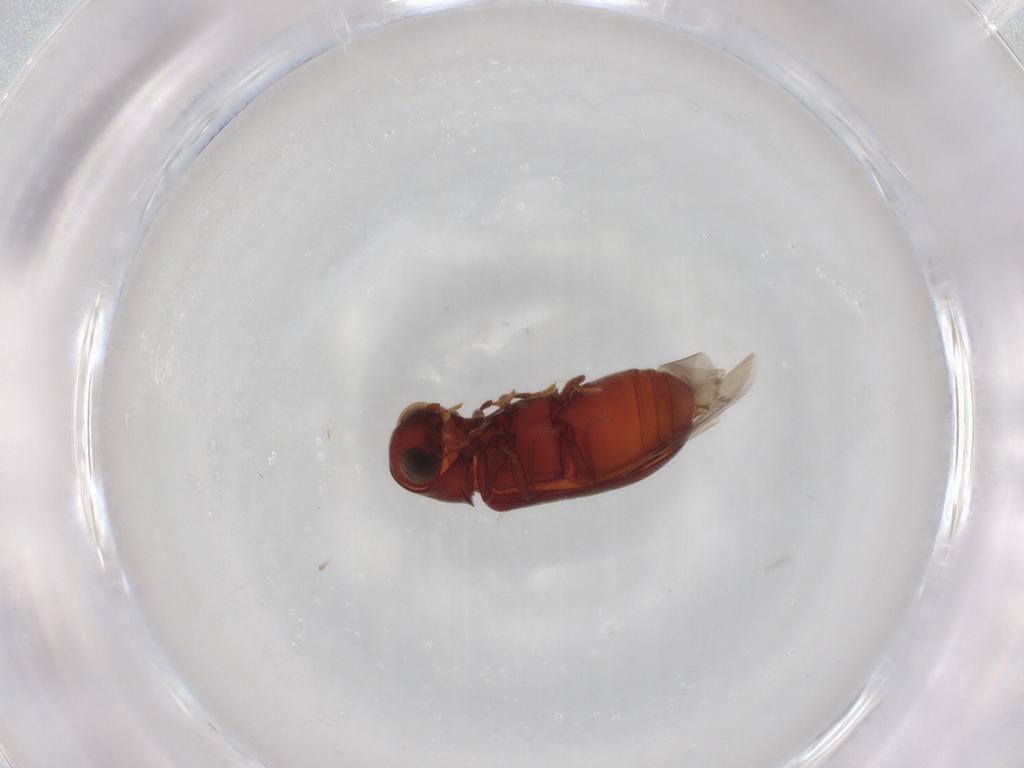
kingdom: Animalia
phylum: Arthropoda
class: Insecta
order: Coleoptera
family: Ptinidae
